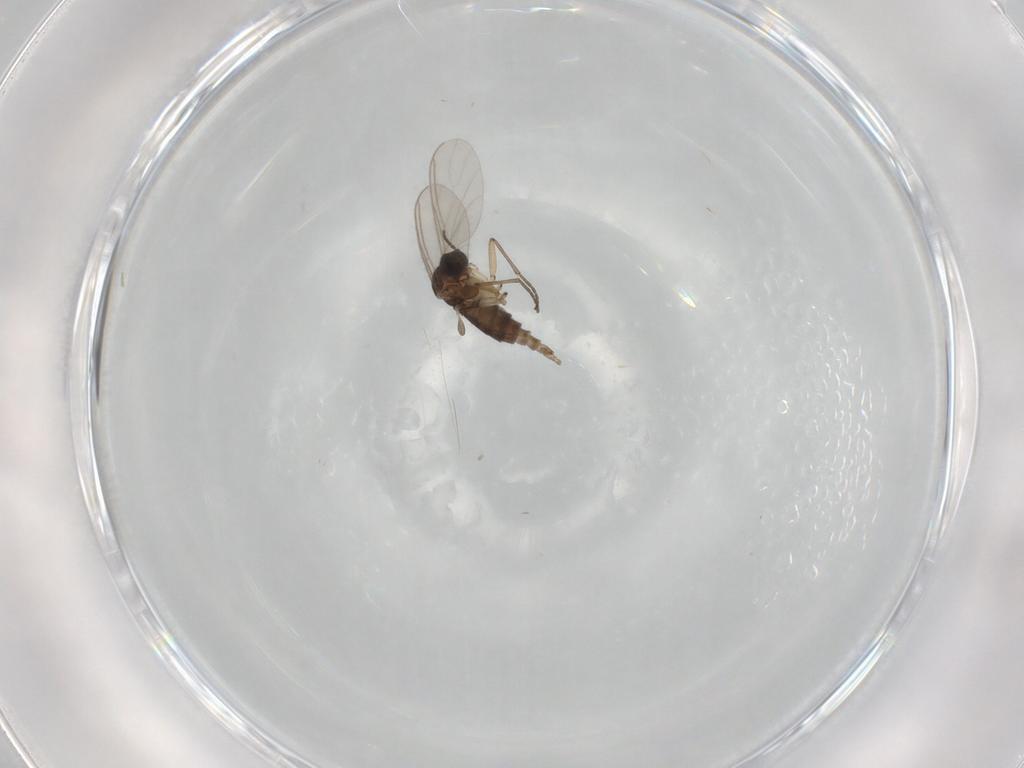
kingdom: Animalia
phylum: Arthropoda
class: Insecta
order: Diptera
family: Sciaridae
